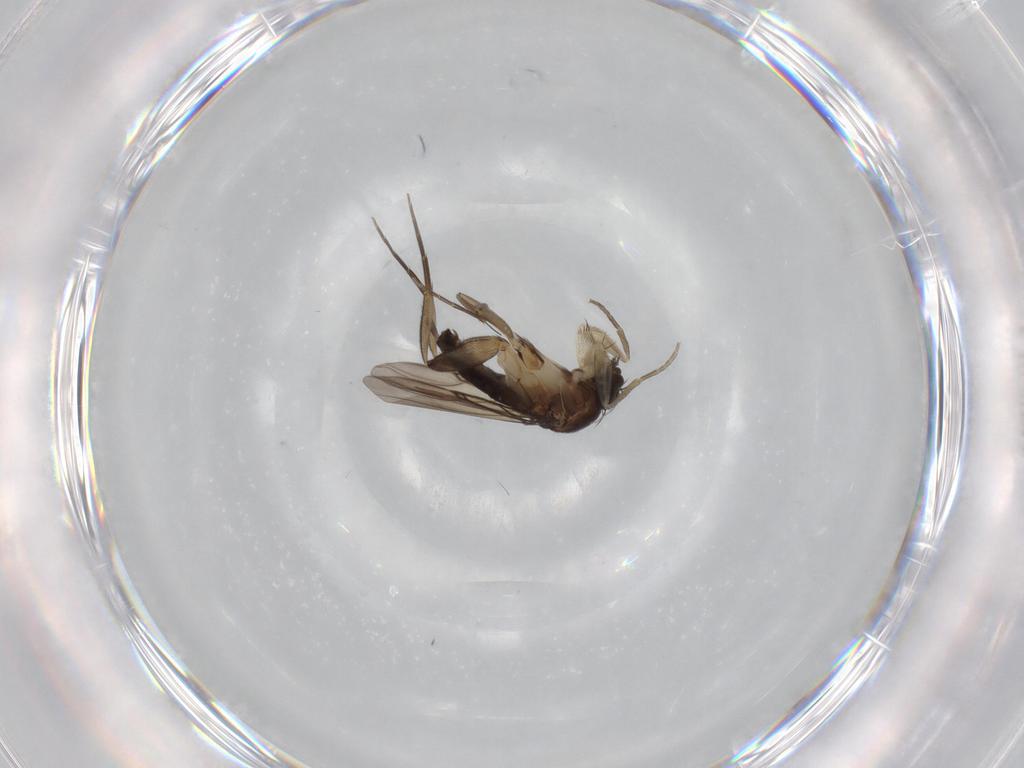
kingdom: Animalia
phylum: Arthropoda
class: Insecta
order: Diptera
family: Phoridae
